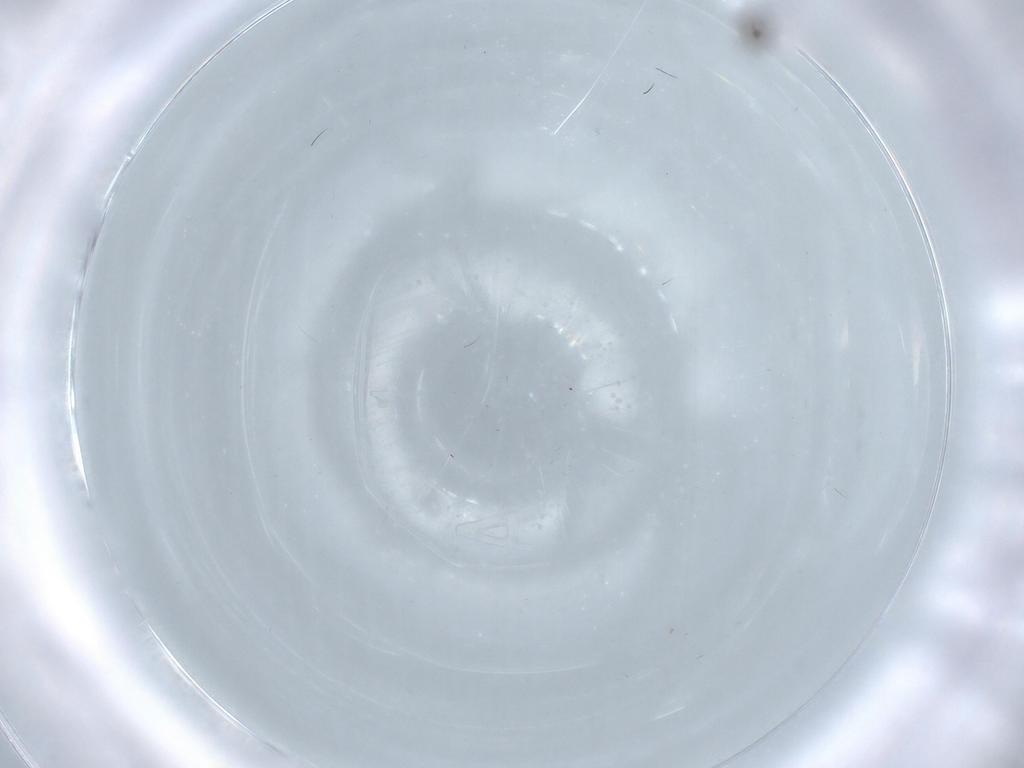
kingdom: Animalia
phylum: Arthropoda
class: Insecta
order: Diptera
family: Cecidomyiidae
